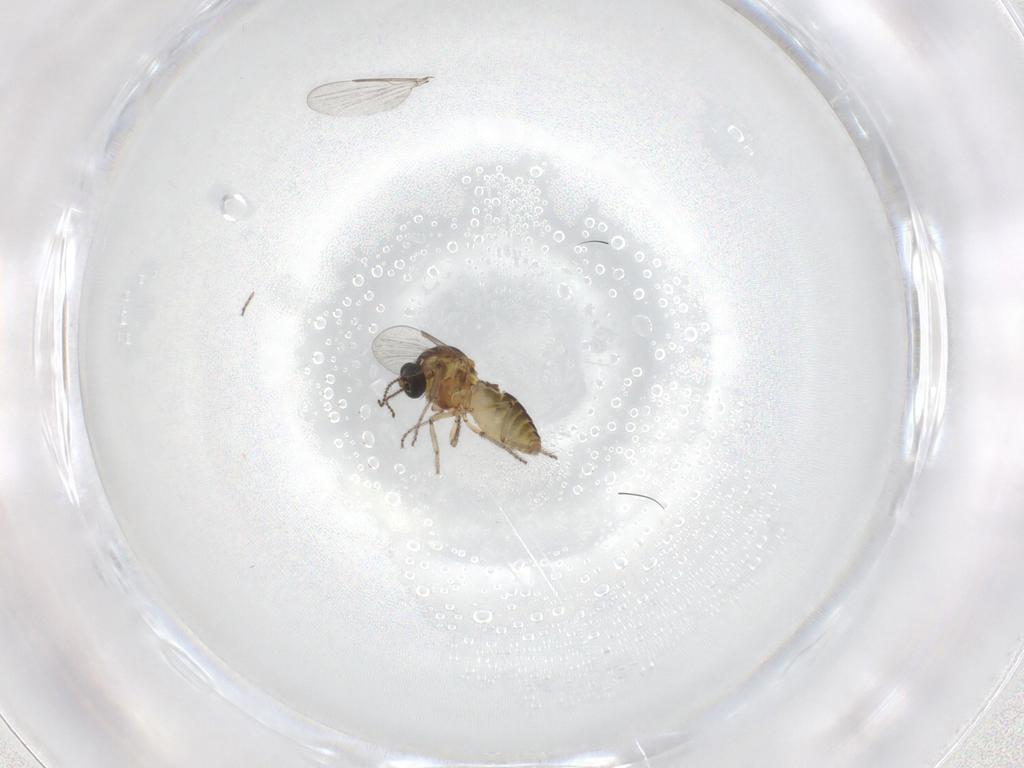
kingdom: Animalia
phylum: Arthropoda
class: Insecta
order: Diptera
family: Ceratopogonidae
